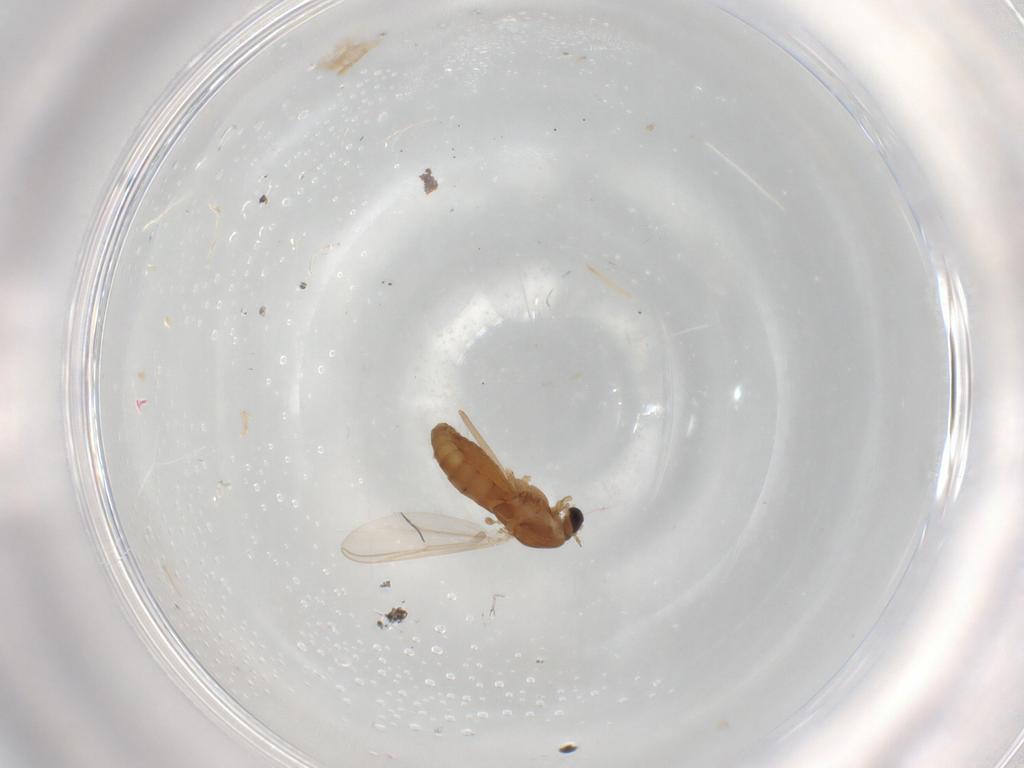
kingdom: Animalia
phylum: Arthropoda
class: Insecta
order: Diptera
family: Chironomidae
